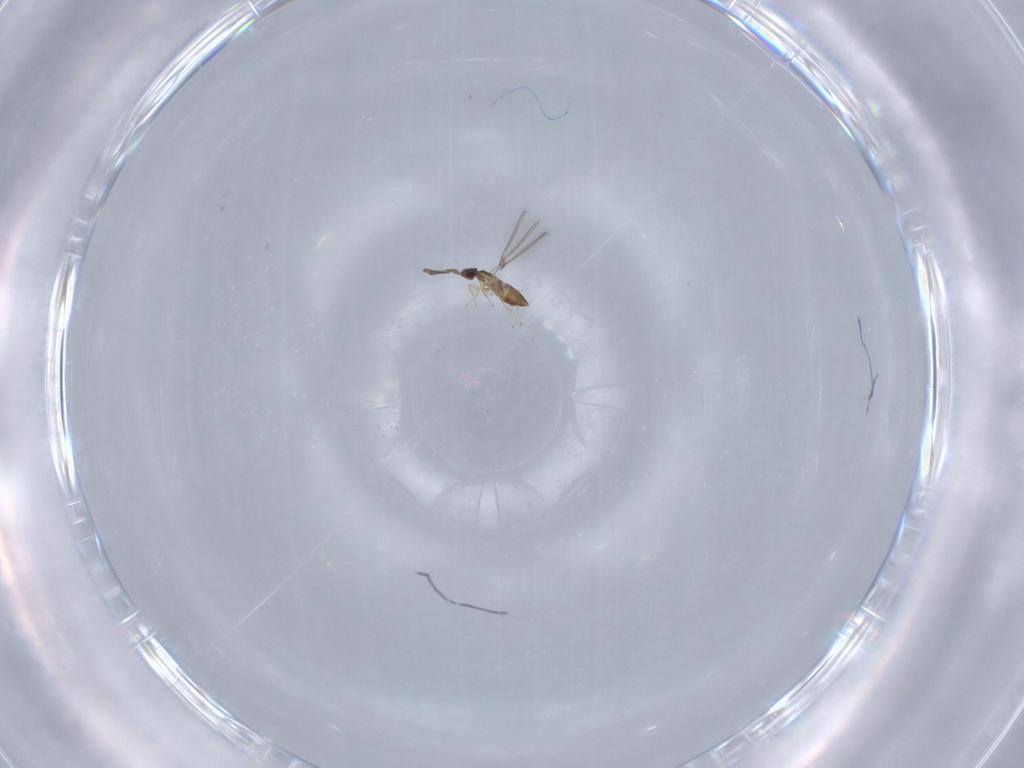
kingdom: Animalia
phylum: Arthropoda
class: Insecta
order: Hymenoptera
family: Mymaridae
